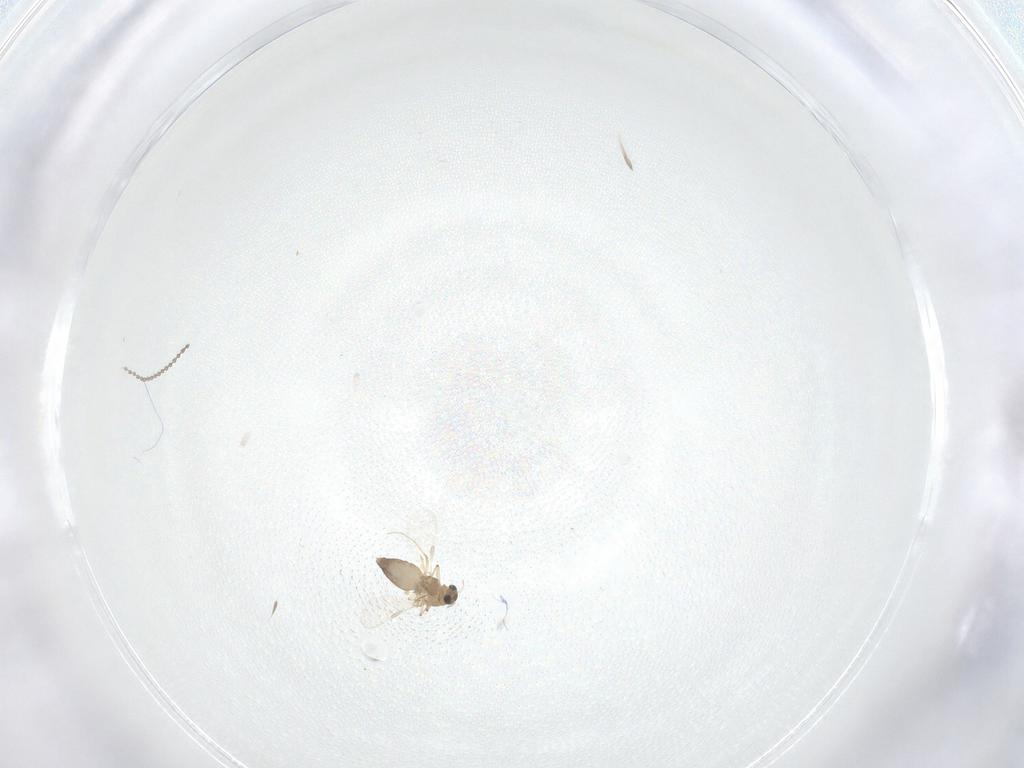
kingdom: Animalia
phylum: Arthropoda
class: Insecta
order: Diptera
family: Chironomidae
